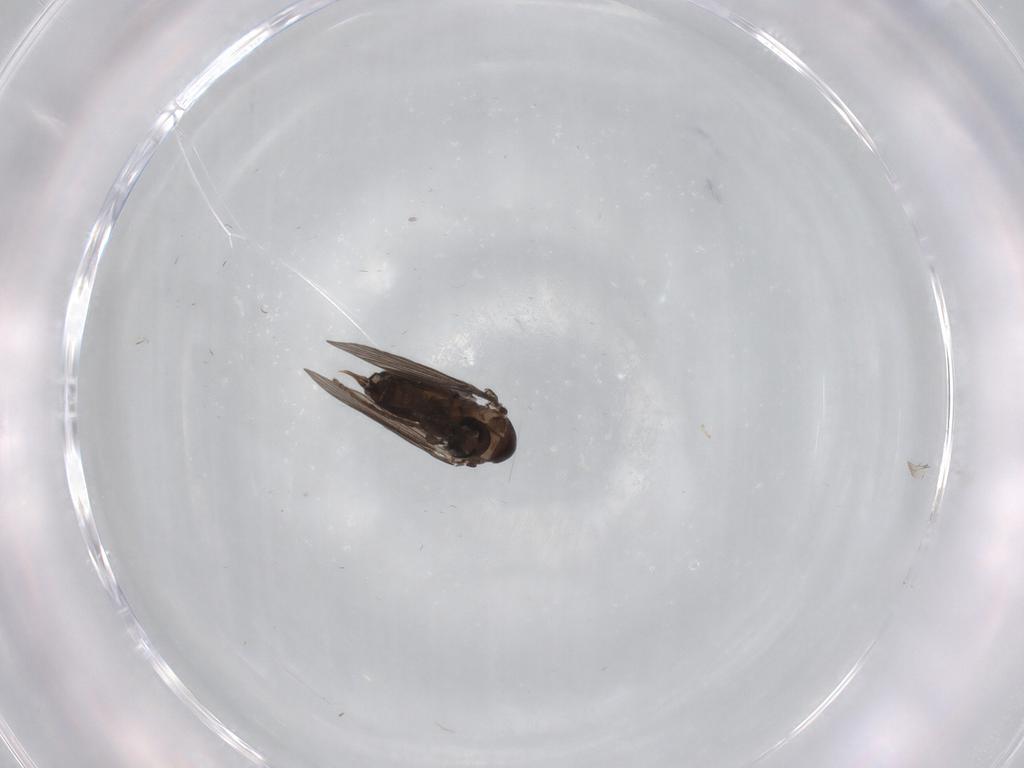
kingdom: Animalia
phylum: Arthropoda
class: Insecta
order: Diptera
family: Psychodidae
